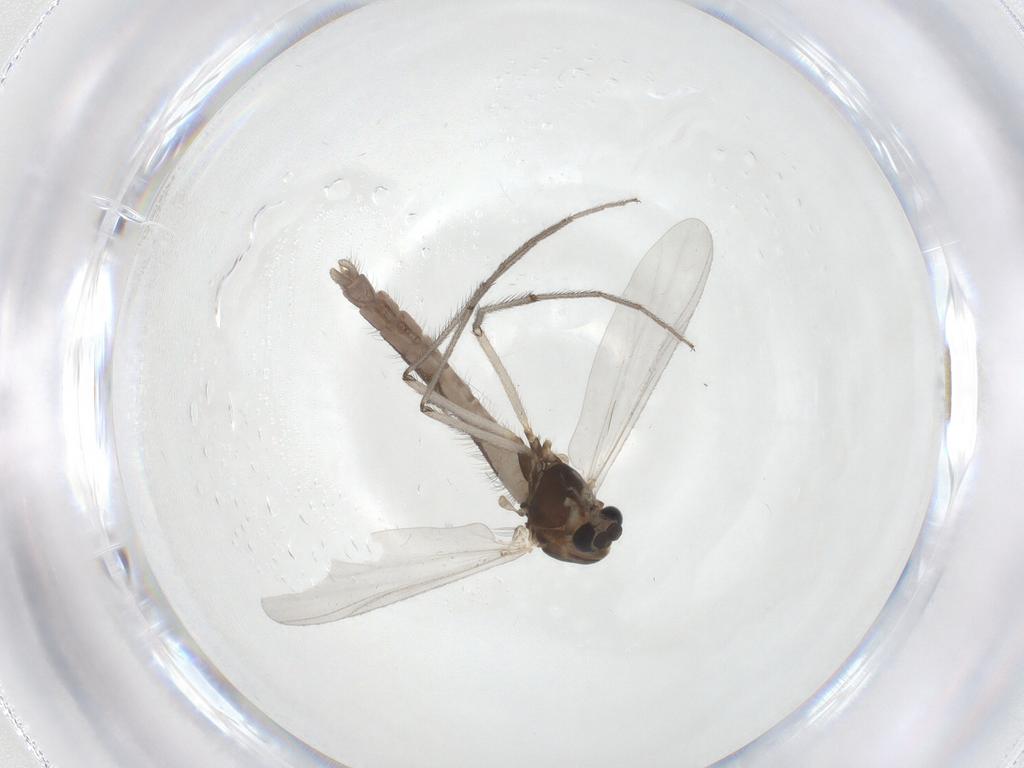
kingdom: Animalia
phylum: Arthropoda
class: Insecta
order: Diptera
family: Chironomidae
